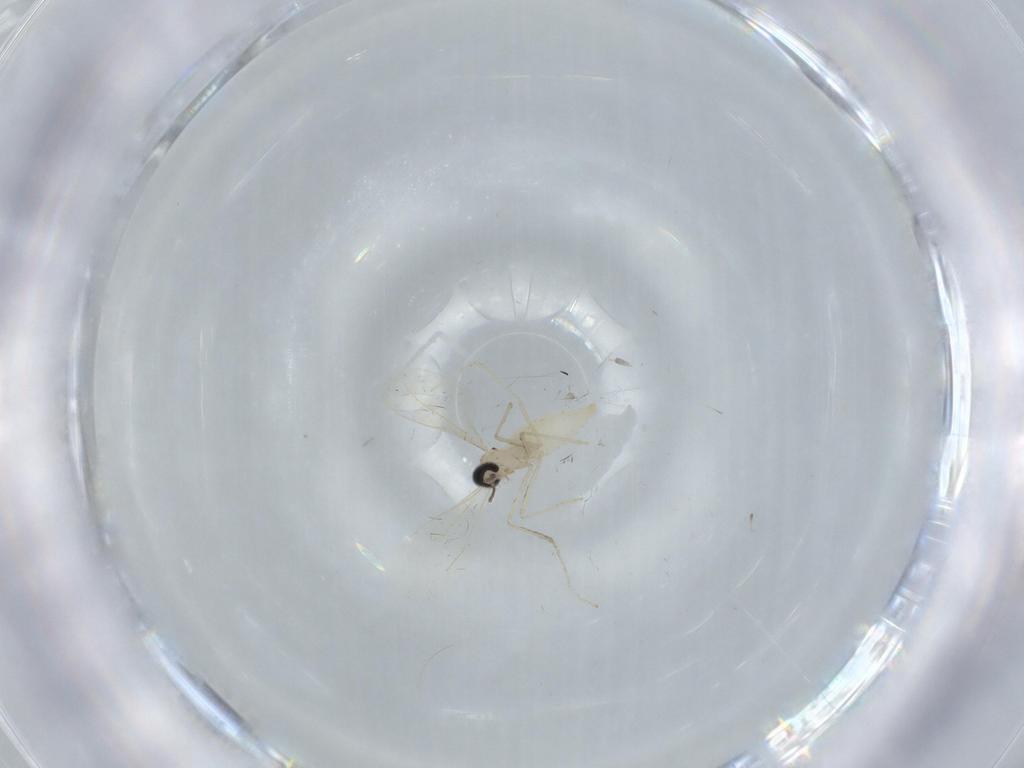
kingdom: Animalia
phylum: Arthropoda
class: Insecta
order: Diptera
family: Cecidomyiidae
